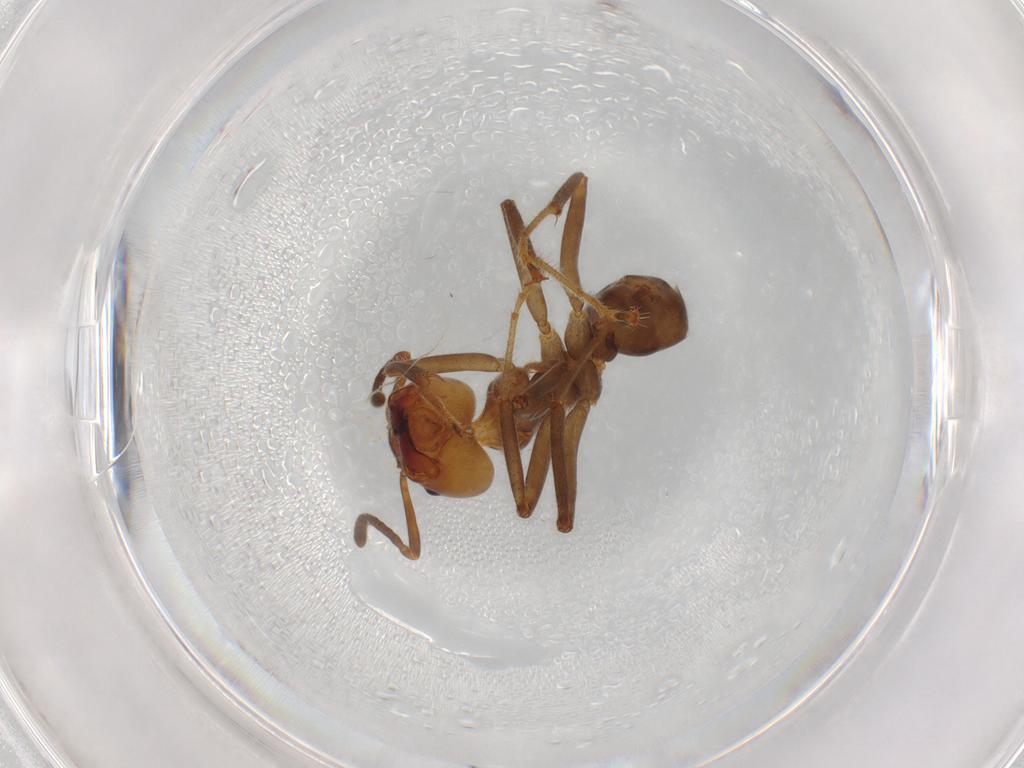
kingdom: Animalia
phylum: Arthropoda
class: Insecta
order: Hymenoptera
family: Formicidae
